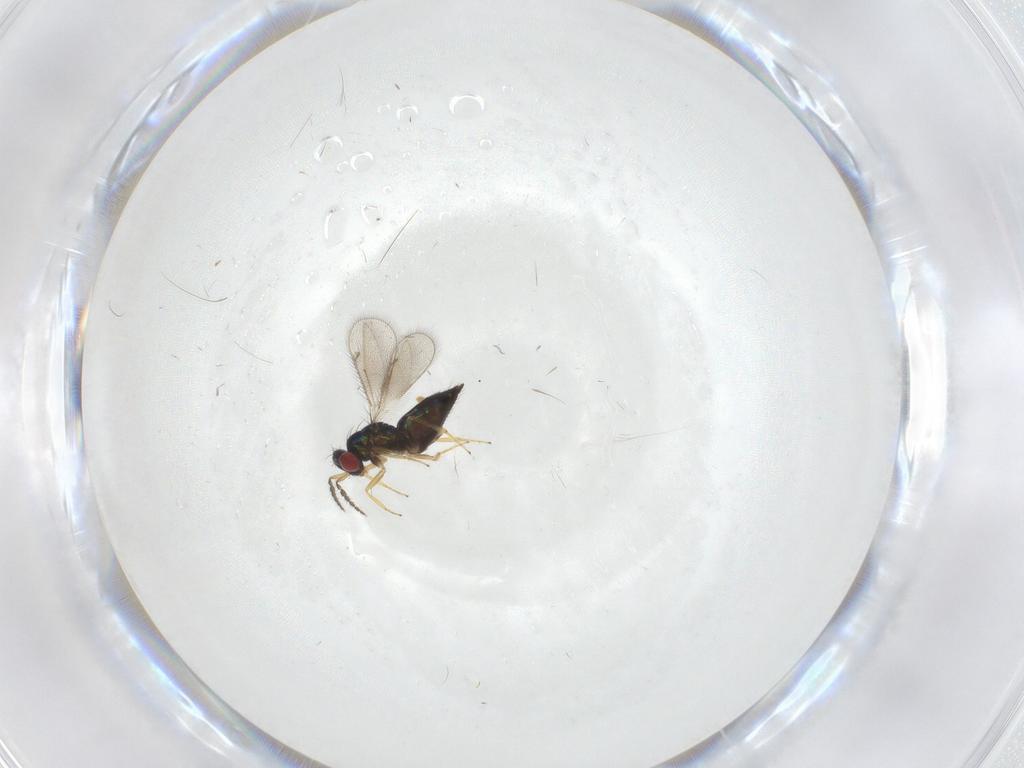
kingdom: Animalia
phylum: Arthropoda
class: Insecta
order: Hymenoptera
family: Eulophidae
